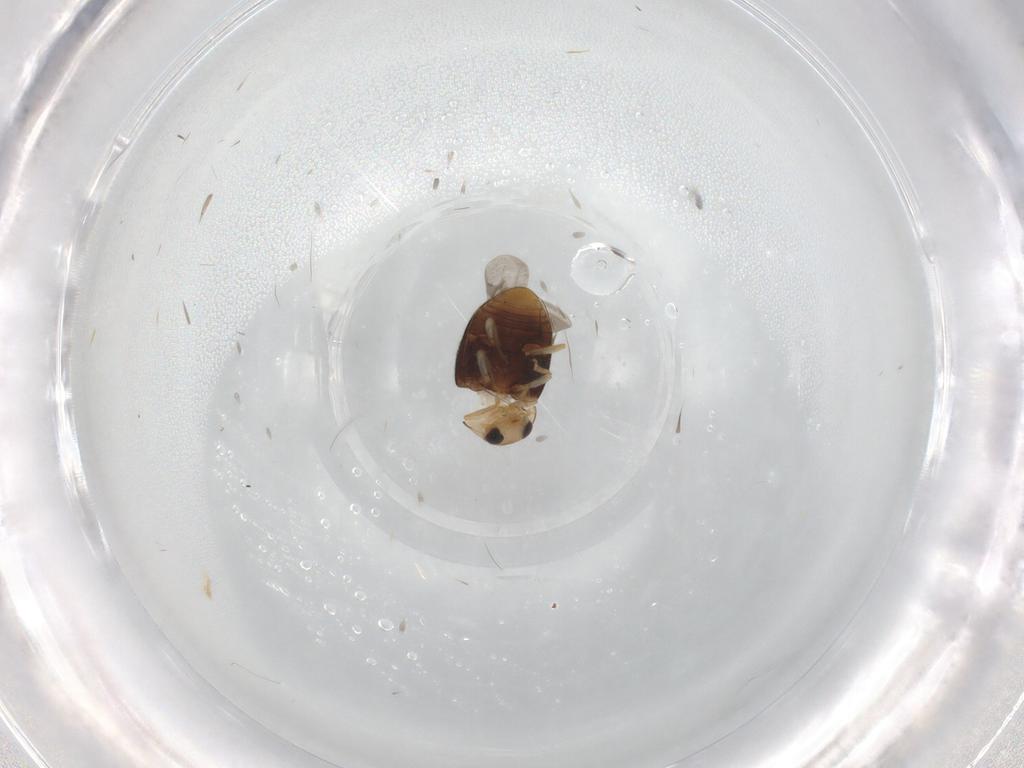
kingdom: Animalia
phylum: Arthropoda
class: Insecta
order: Coleoptera
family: Coccinellidae
